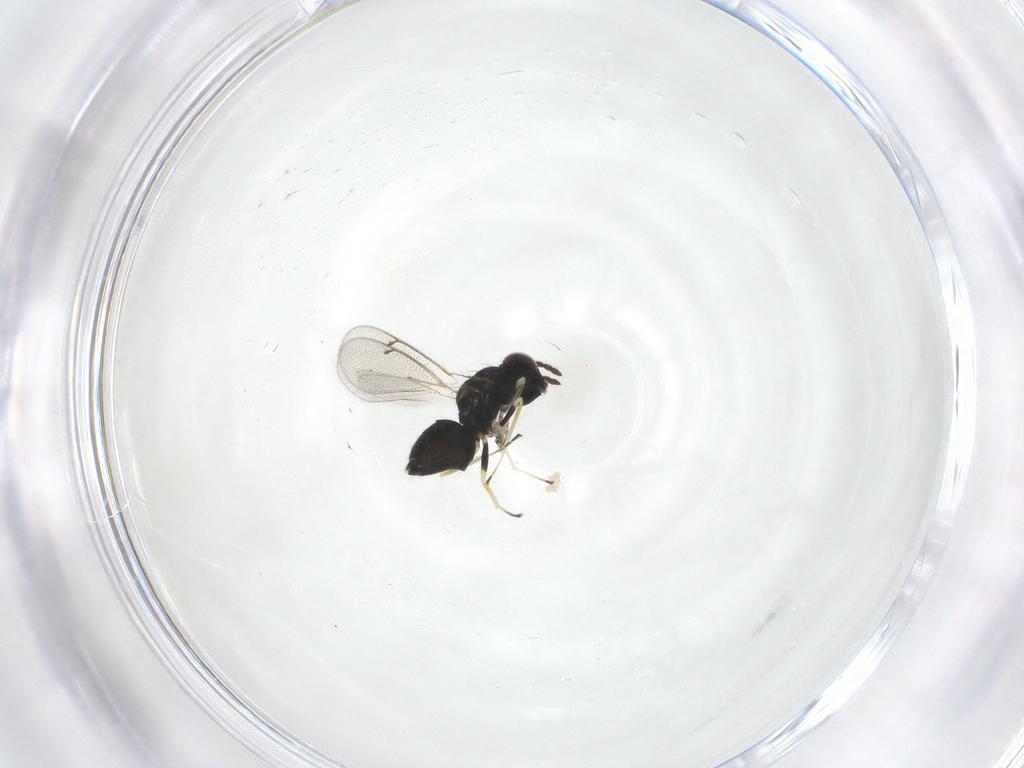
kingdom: Animalia
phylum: Arthropoda
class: Insecta
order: Hymenoptera
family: Eulophidae
